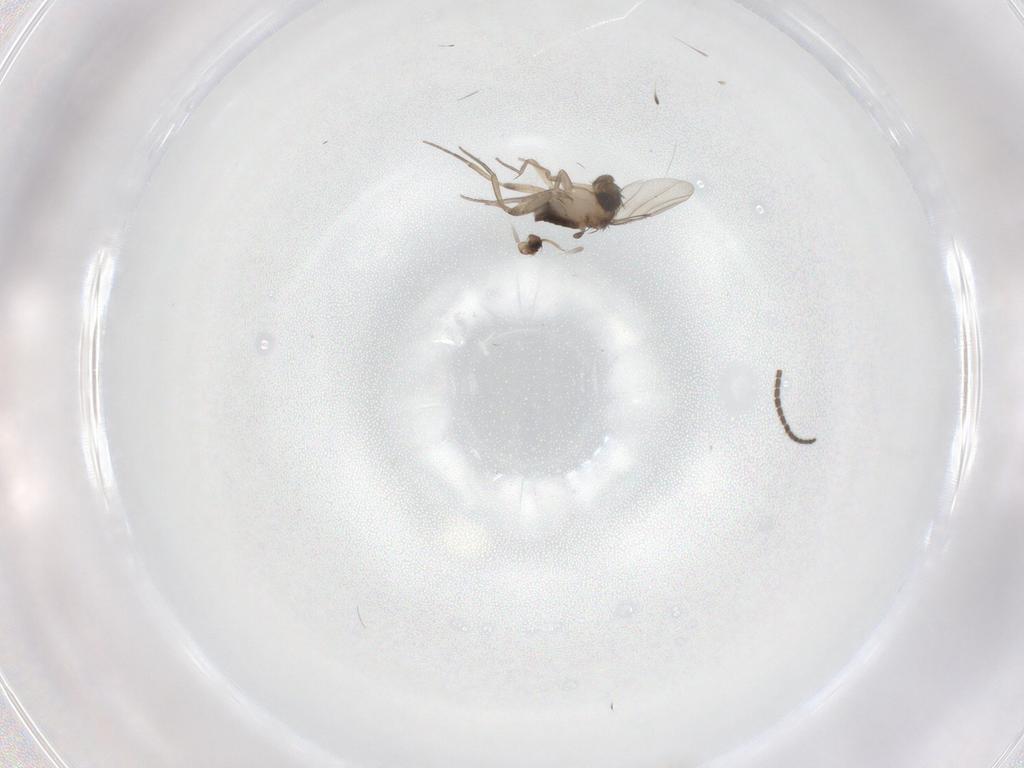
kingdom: Animalia
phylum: Arthropoda
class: Insecta
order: Diptera
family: Phoridae
